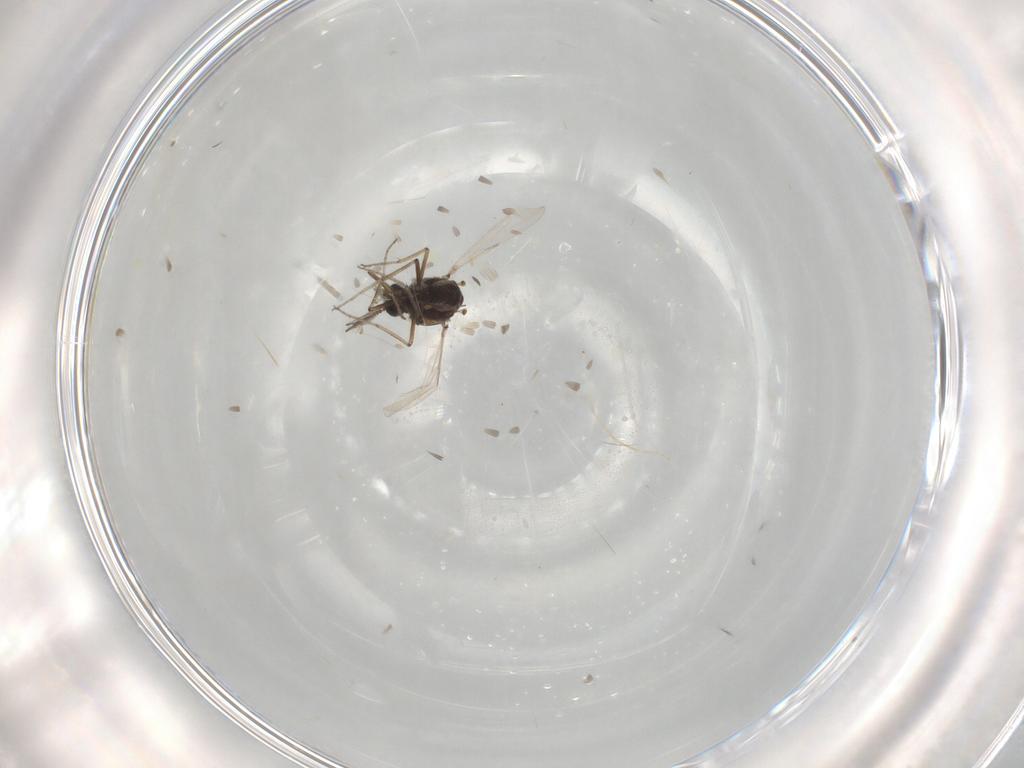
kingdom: Animalia
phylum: Arthropoda
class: Insecta
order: Diptera
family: Ceratopogonidae
